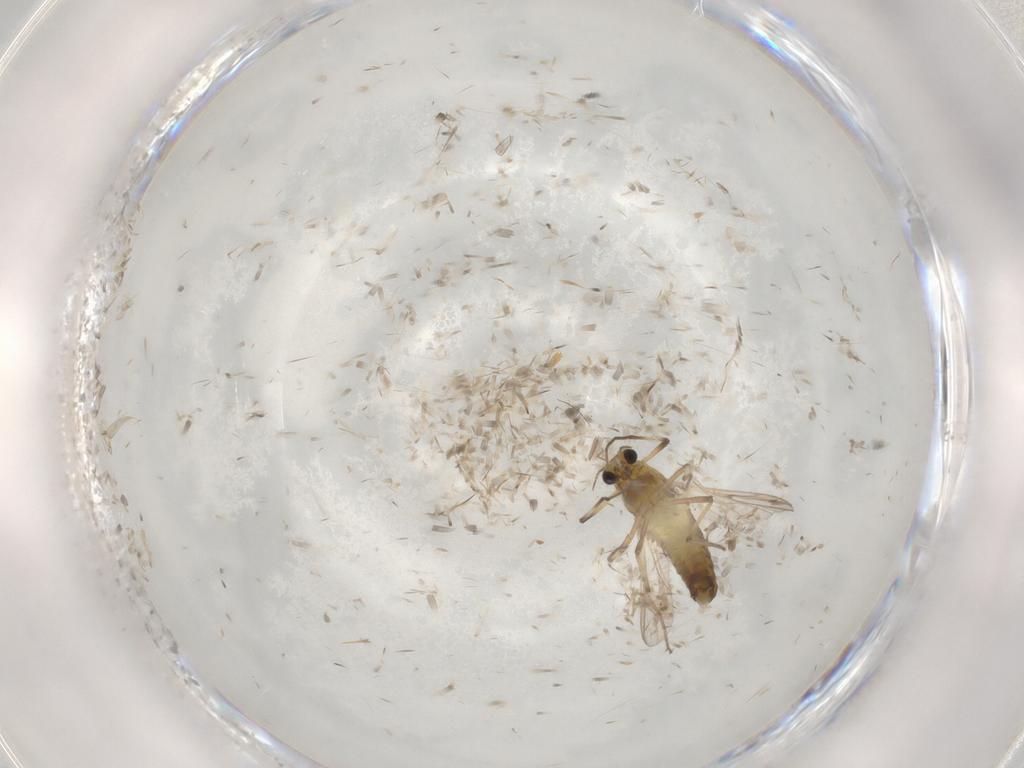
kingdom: Animalia
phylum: Arthropoda
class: Insecta
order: Diptera
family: Chironomidae
